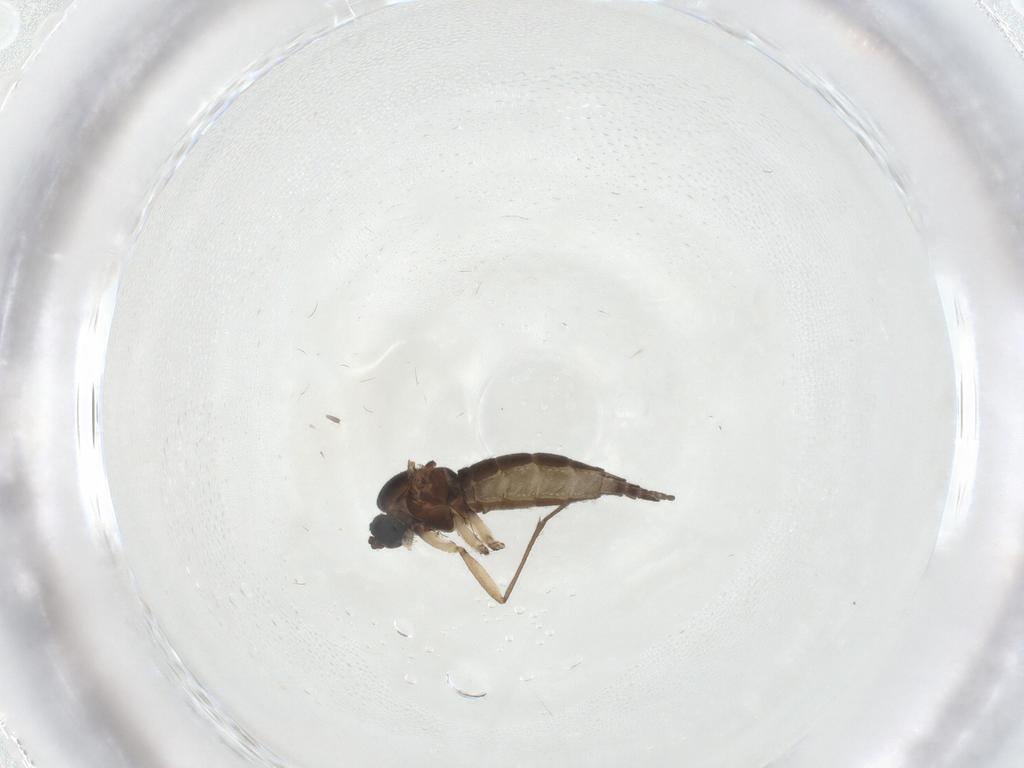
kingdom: Animalia
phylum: Arthropoda
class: Insecta
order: Diptera
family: Sciaridae
